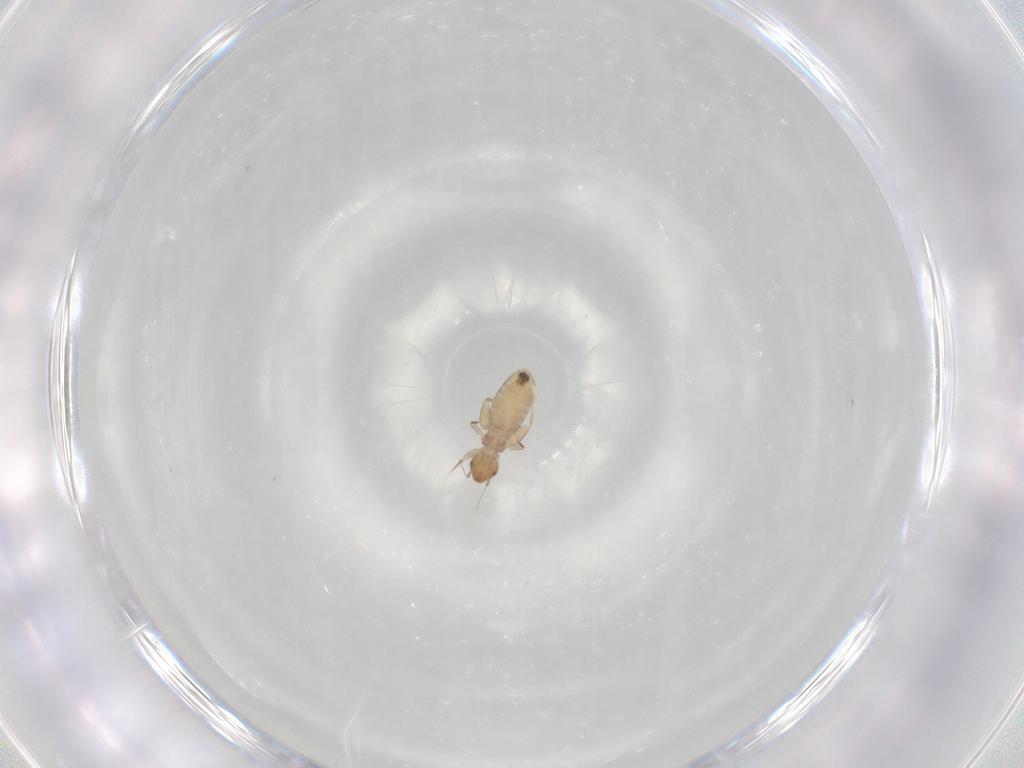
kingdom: Animalia
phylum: Arthropoda
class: Insecta
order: Psocodea
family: Liposcelididae
